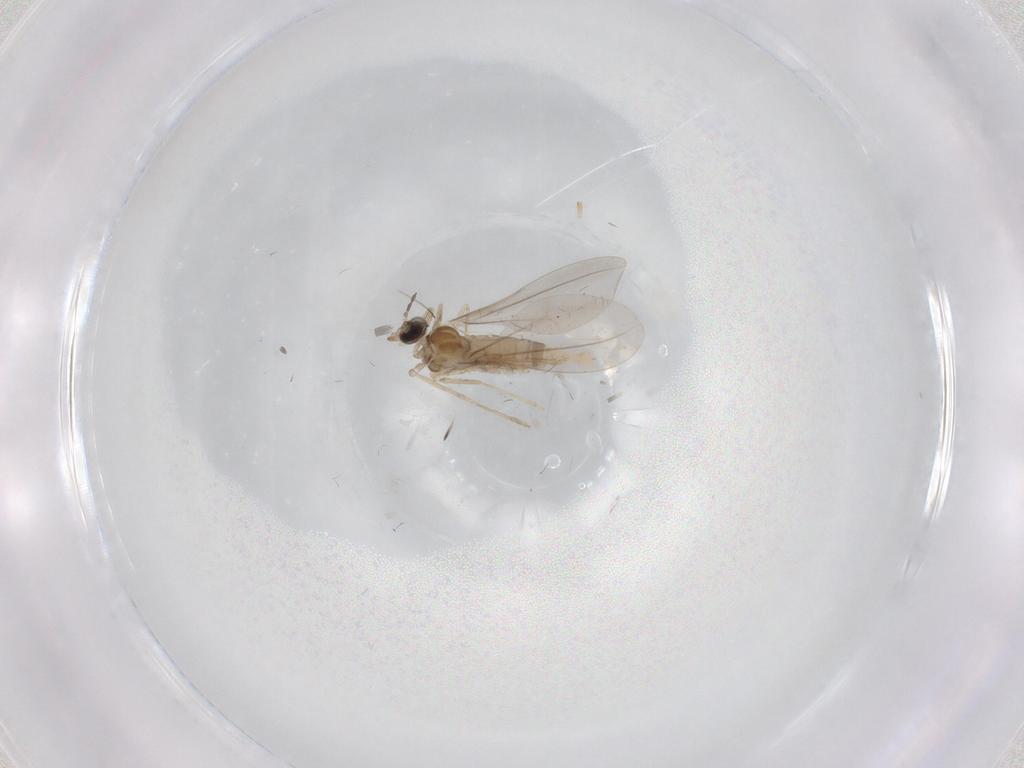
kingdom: Animalia
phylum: Arthropoda
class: Insecta
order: Diptera
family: Cecidomyiidae
